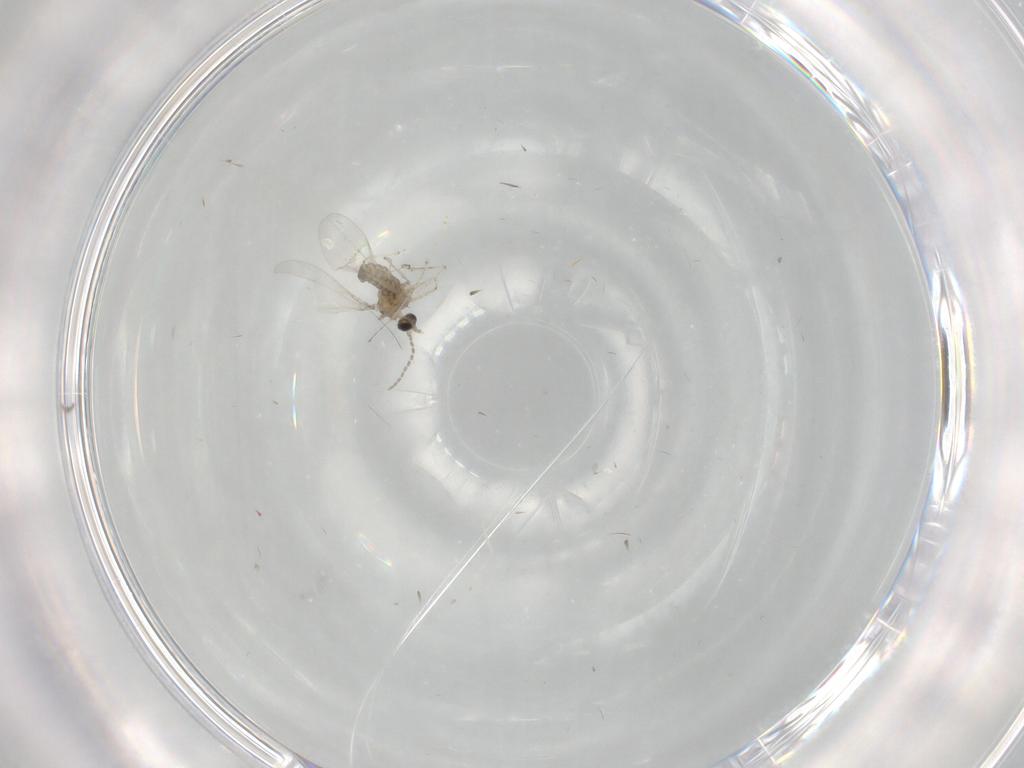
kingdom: Animalia
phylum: Arthropoda
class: Insecta
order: Diptera
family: Cecidomyiidae
